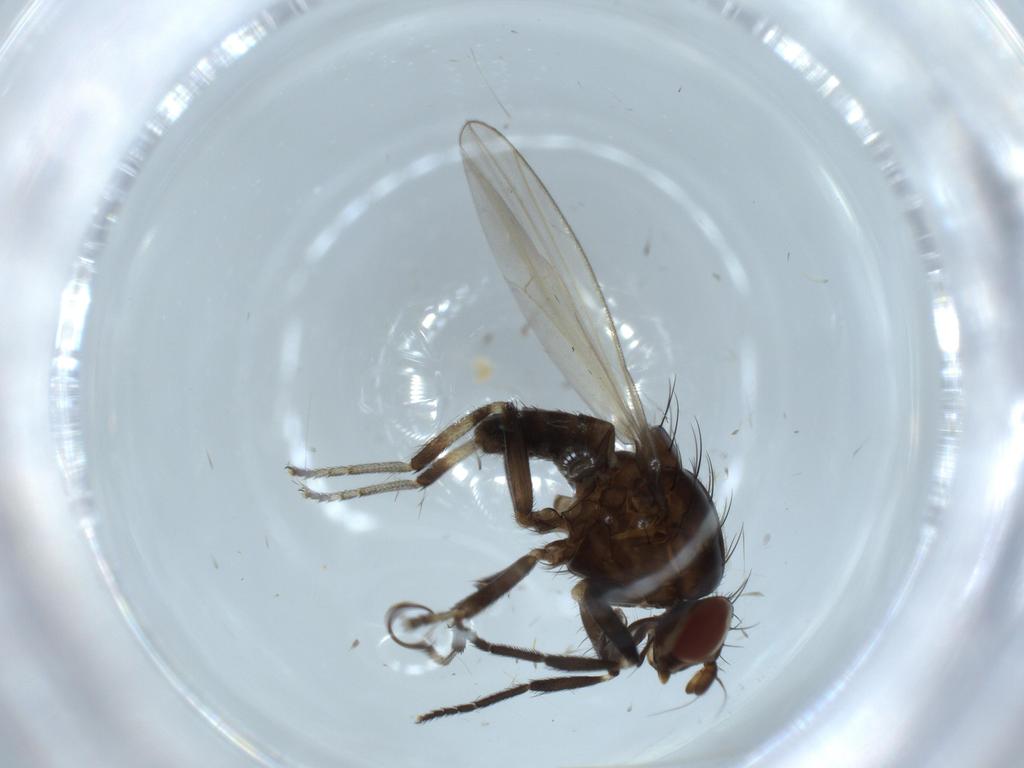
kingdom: Animalia
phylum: Arthropoda
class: Insecta
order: Diptera
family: Lauxaniidae
